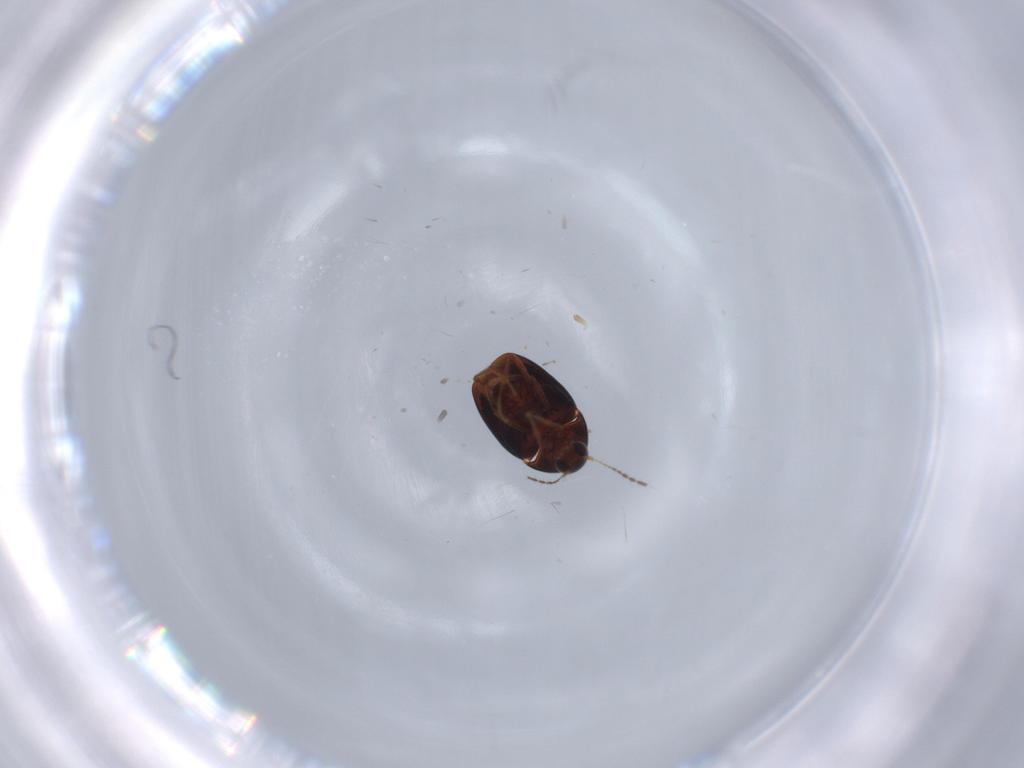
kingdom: Animalia
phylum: Arthropoda
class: Insecta
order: Coleoptera
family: Staphylinidae
